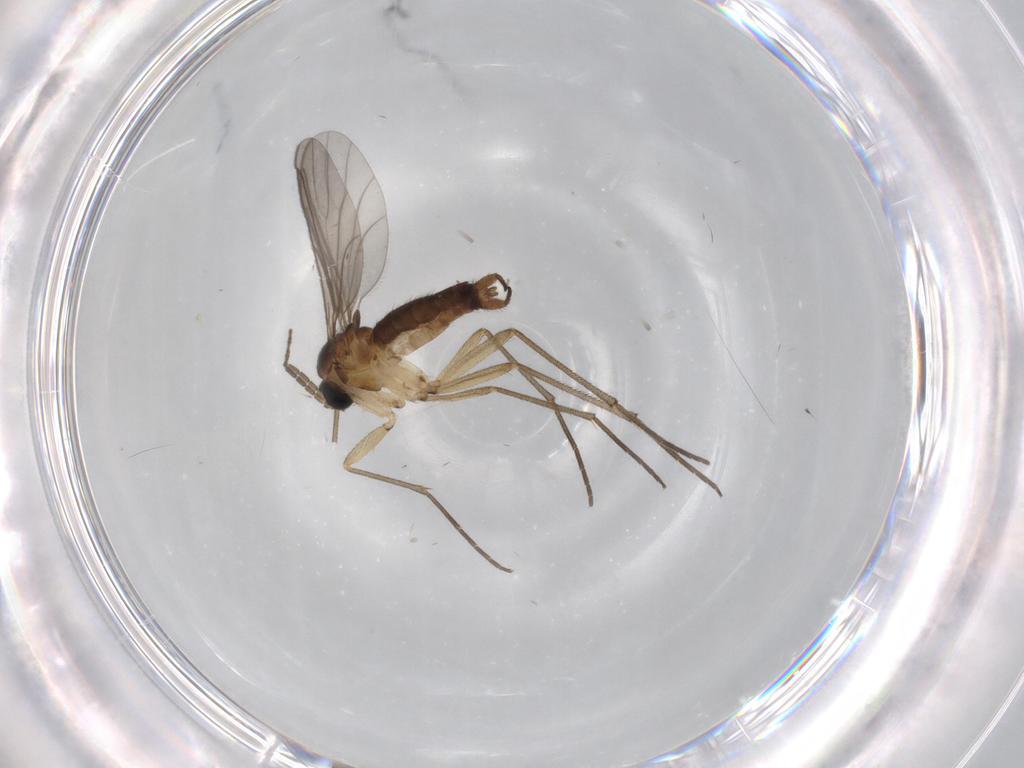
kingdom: Animalia
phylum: Arthropoda
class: Insecta
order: Diptera
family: Sciaridae
